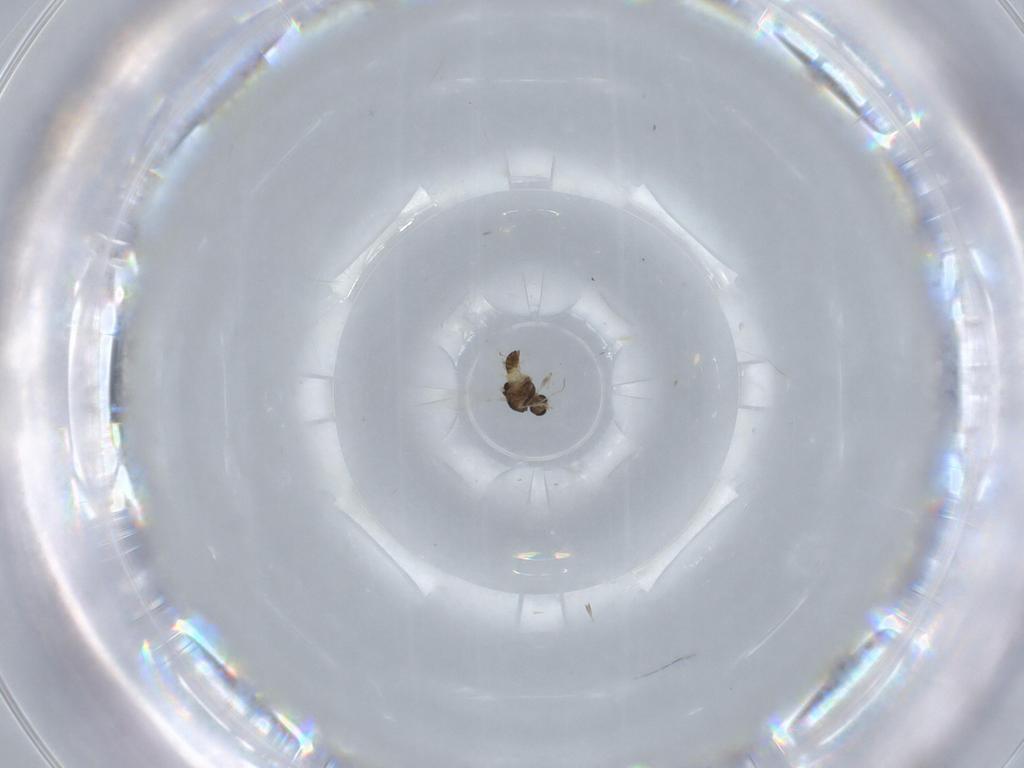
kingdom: Animalia
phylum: Arthropoda
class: Insecta
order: Diptera
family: Chironomidae
